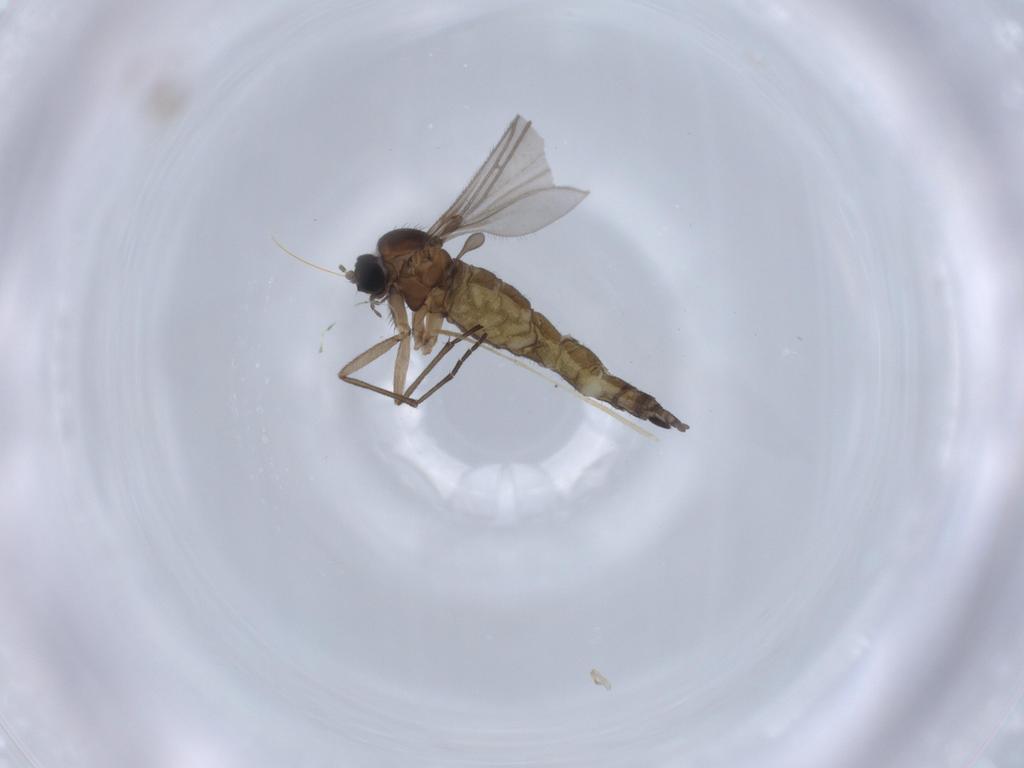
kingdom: Animalia
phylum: Arthropoda
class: Insecta
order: Diptera
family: Sciaridae
